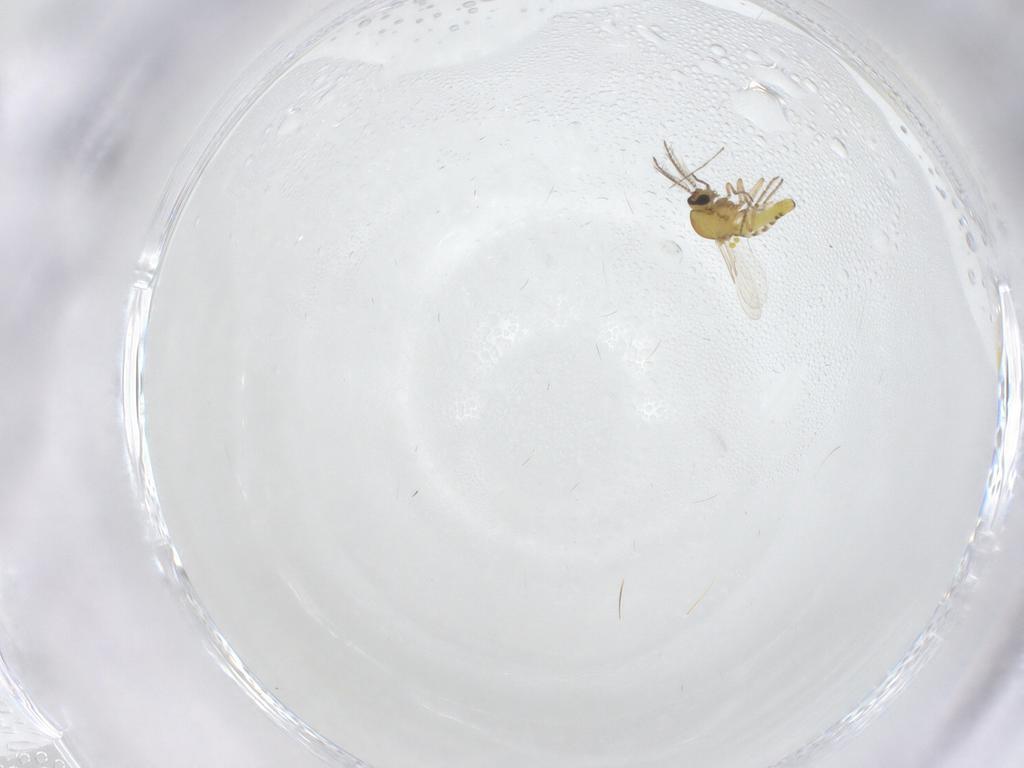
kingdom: Animalia
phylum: Arthropoda
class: Insecta
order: Diptera
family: Ceratopogonidae
